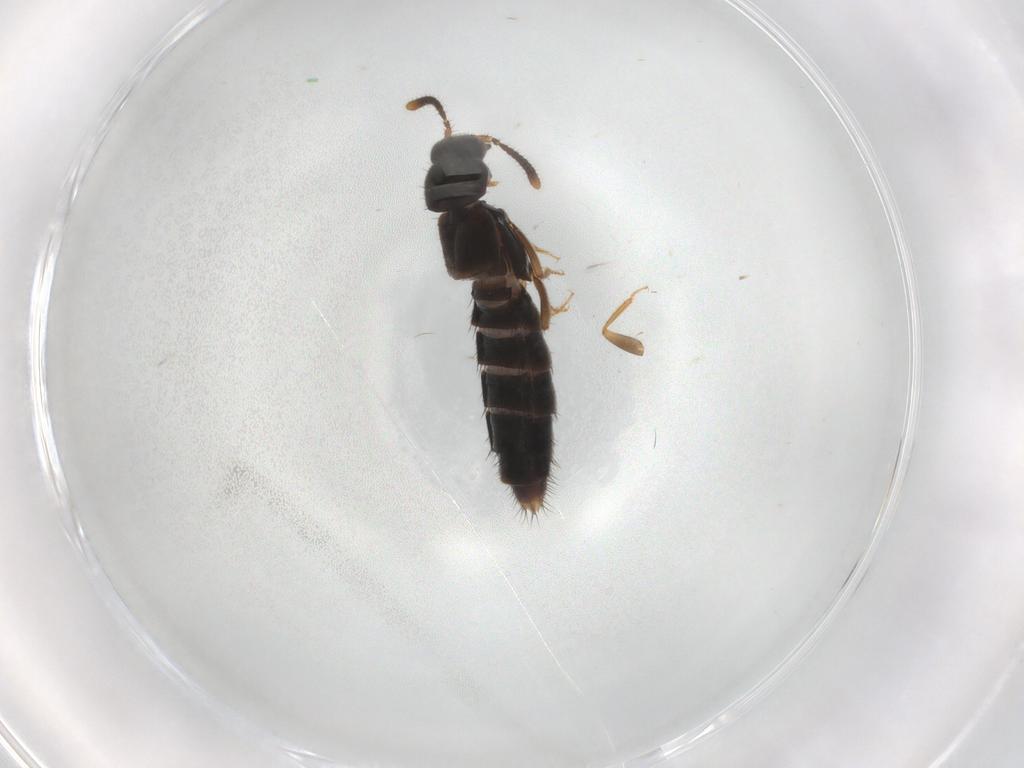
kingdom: Animalia
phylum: Arthropoda
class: Insecta
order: Coleoptera
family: Staphylinidae
